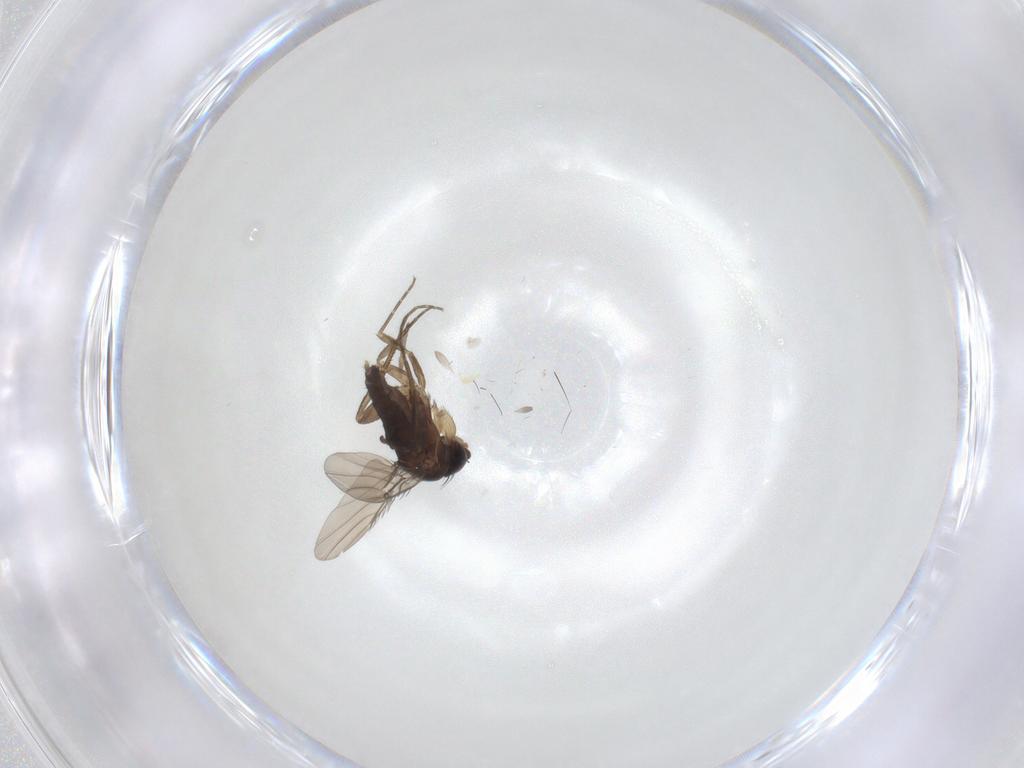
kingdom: Animalia
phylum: Arthropoda
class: Insecta
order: Diptera
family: Phoridae
